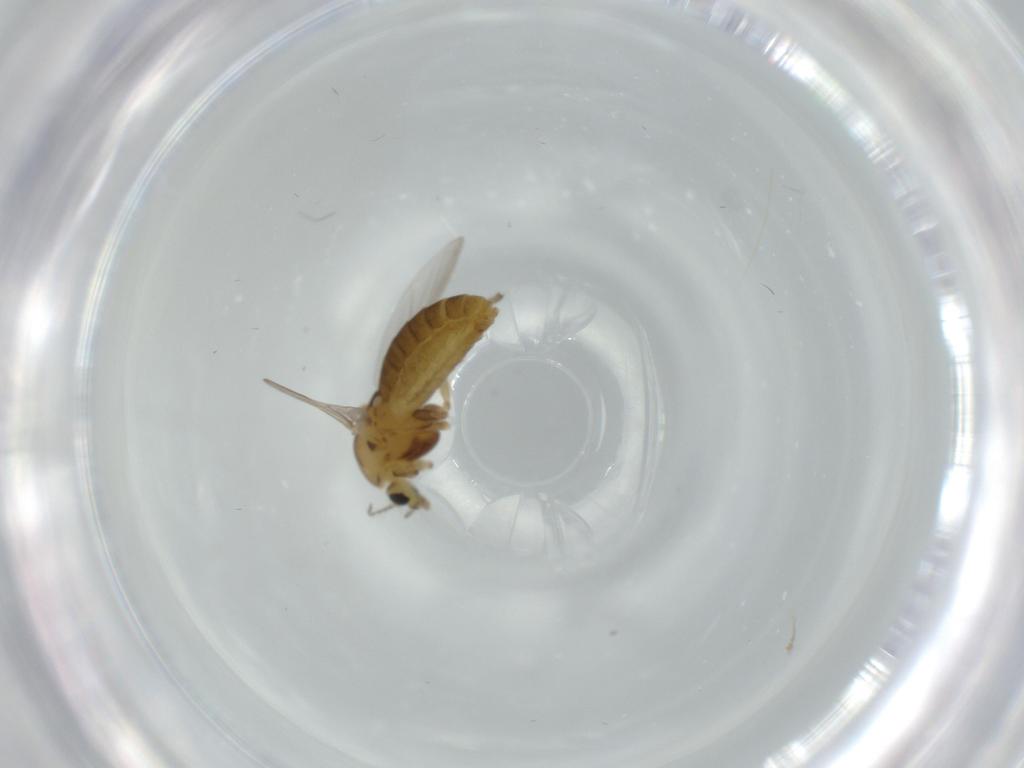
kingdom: Animalia
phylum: Arthropoda
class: Insecta
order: Diptera
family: Chironomidae
